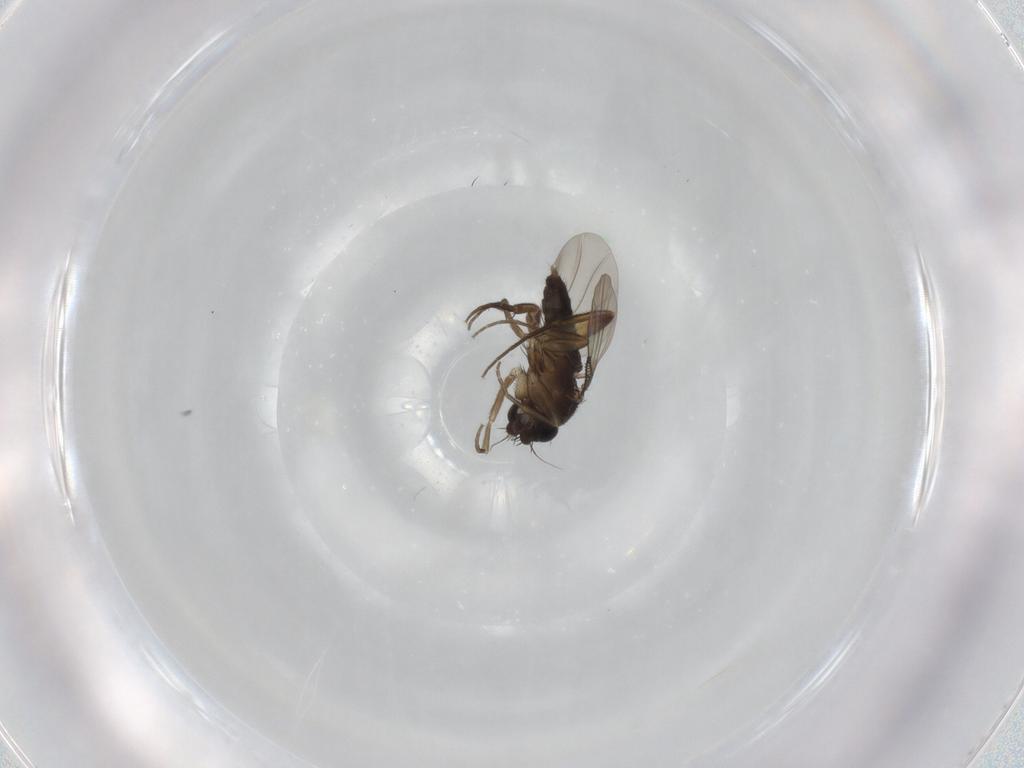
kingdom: Animalia
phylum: Arthropoda
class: Insecta
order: Diptera
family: Phoridae
